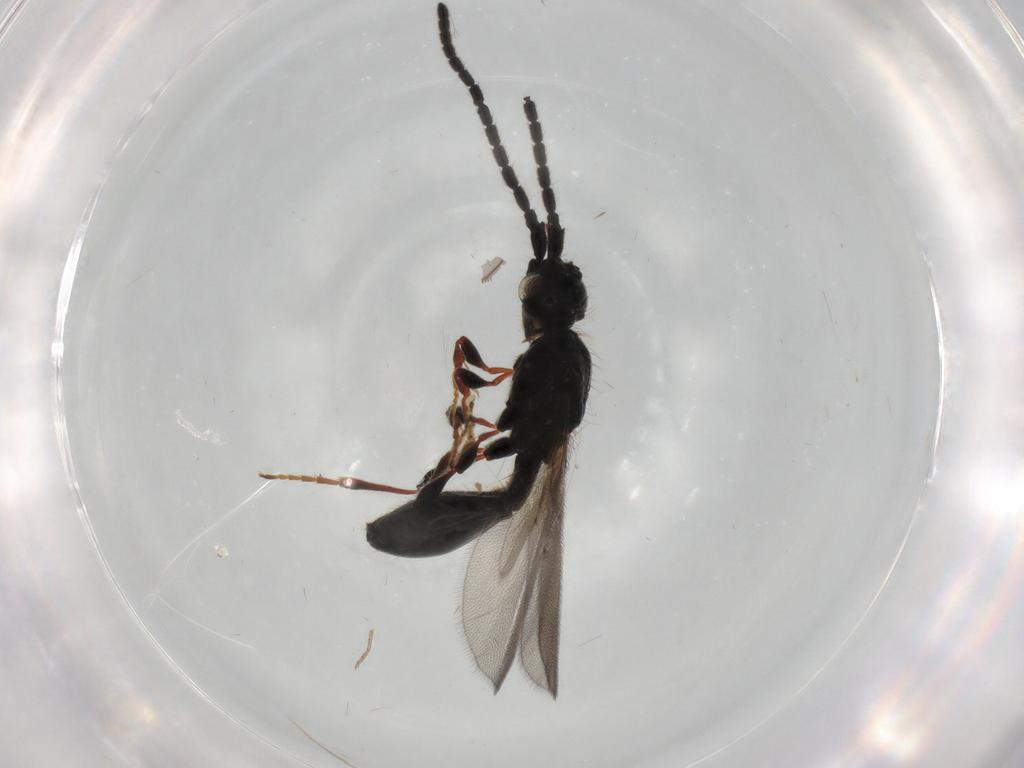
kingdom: Animalia
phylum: Arthropoda
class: Insecta
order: Hymenoptera
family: Diapriidae
